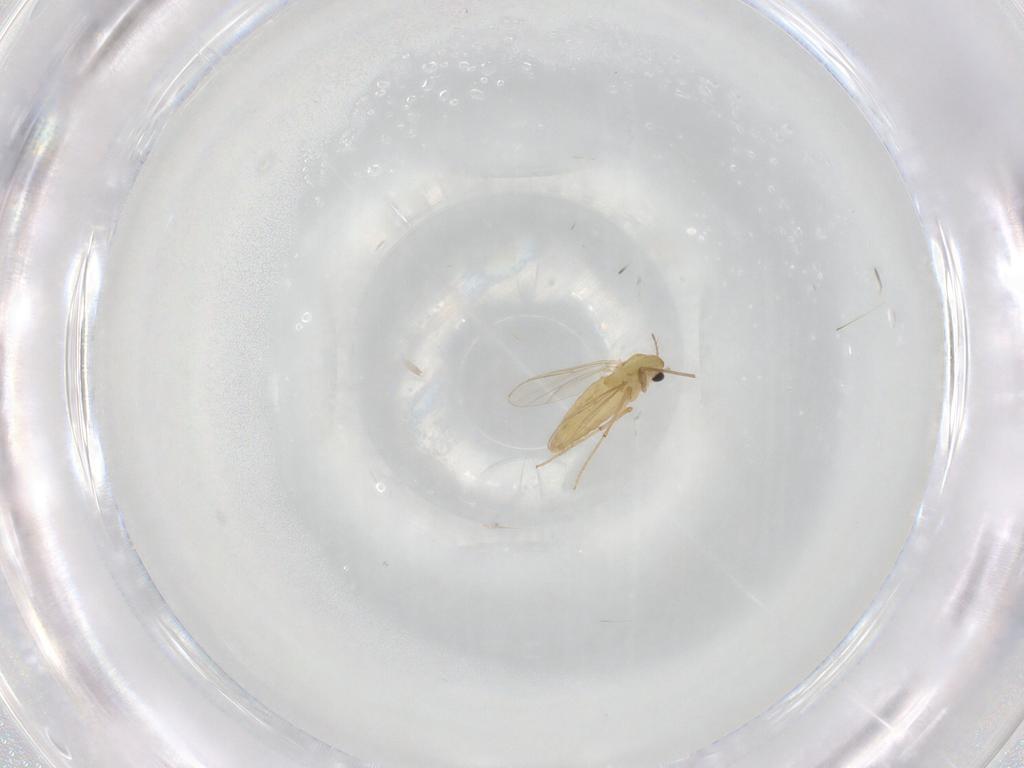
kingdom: Animalia
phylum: Arthropoda
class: Insecta
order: Diptera
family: Chironomidae
